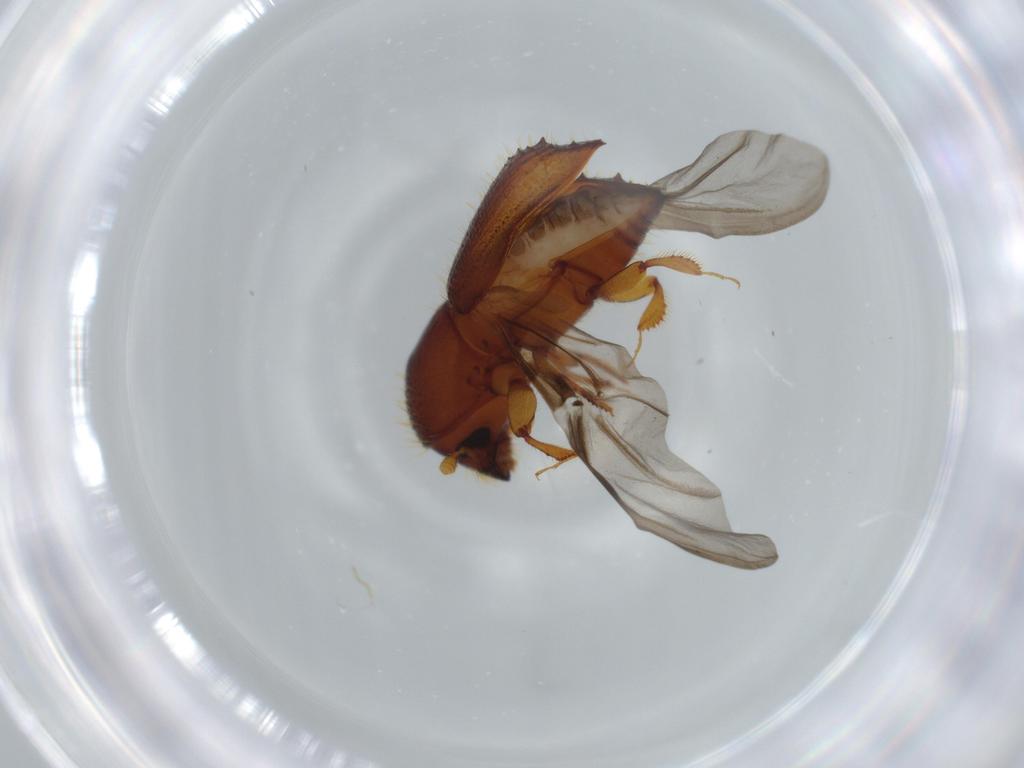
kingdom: Animalia
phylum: Arthropoda
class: Insecta
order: Coleoptera
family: Curculionidae
